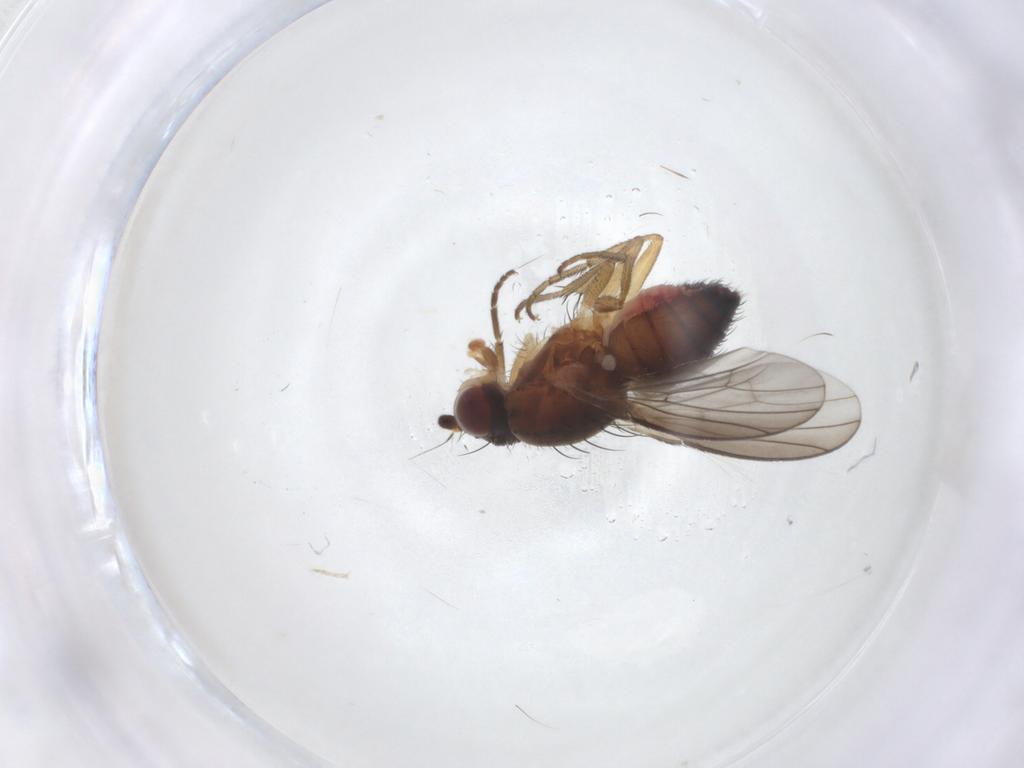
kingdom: Animalia
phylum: Arthropoda
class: Insecta
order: Diptera
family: Heleomyzidae
